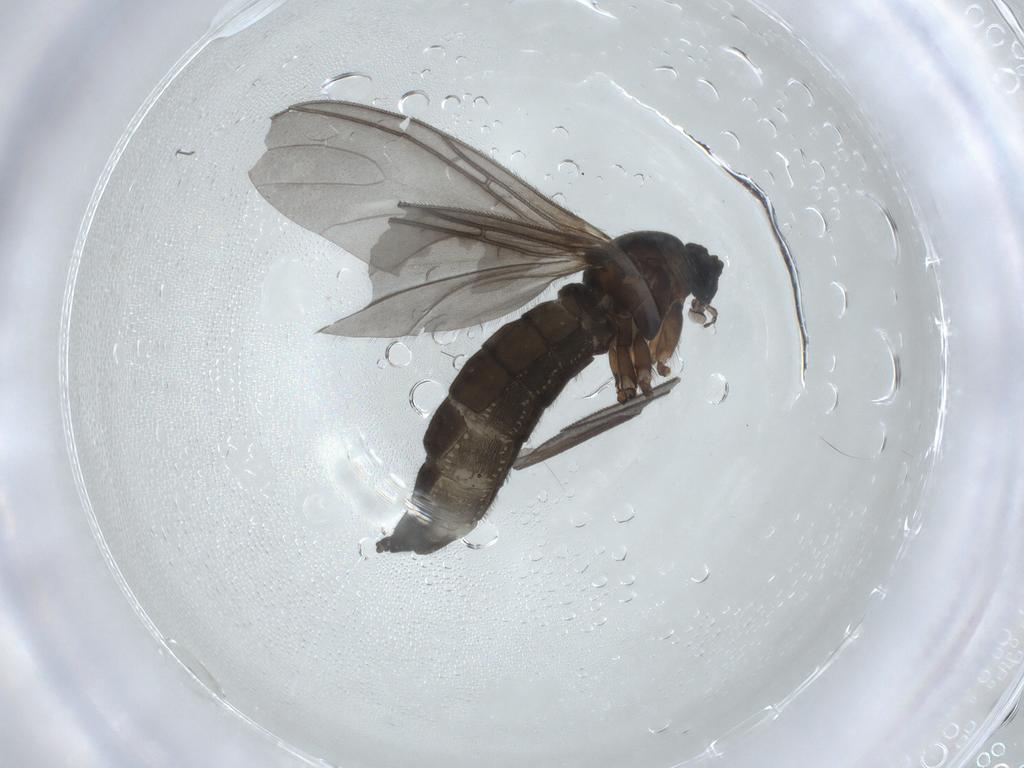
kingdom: Animalia
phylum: Arthropoda
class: Insecta
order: Diptera
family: Sciaridae
